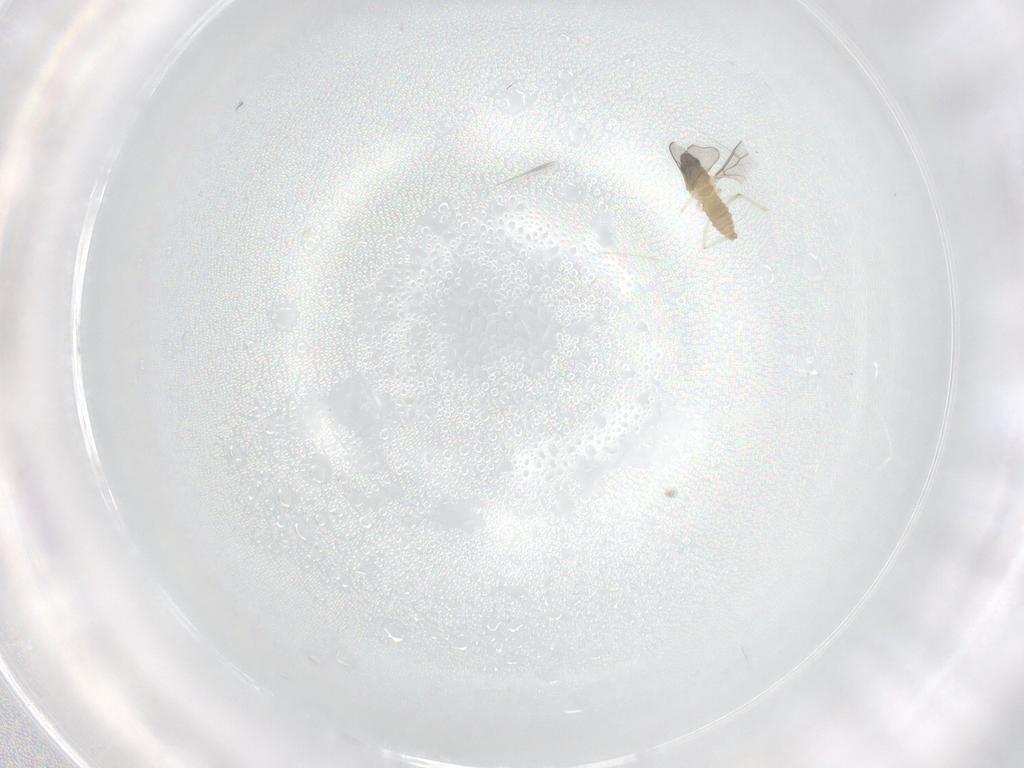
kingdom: Animalia
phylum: Arthropoda
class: Insecta
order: Diptera
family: Cecidomyiidae
